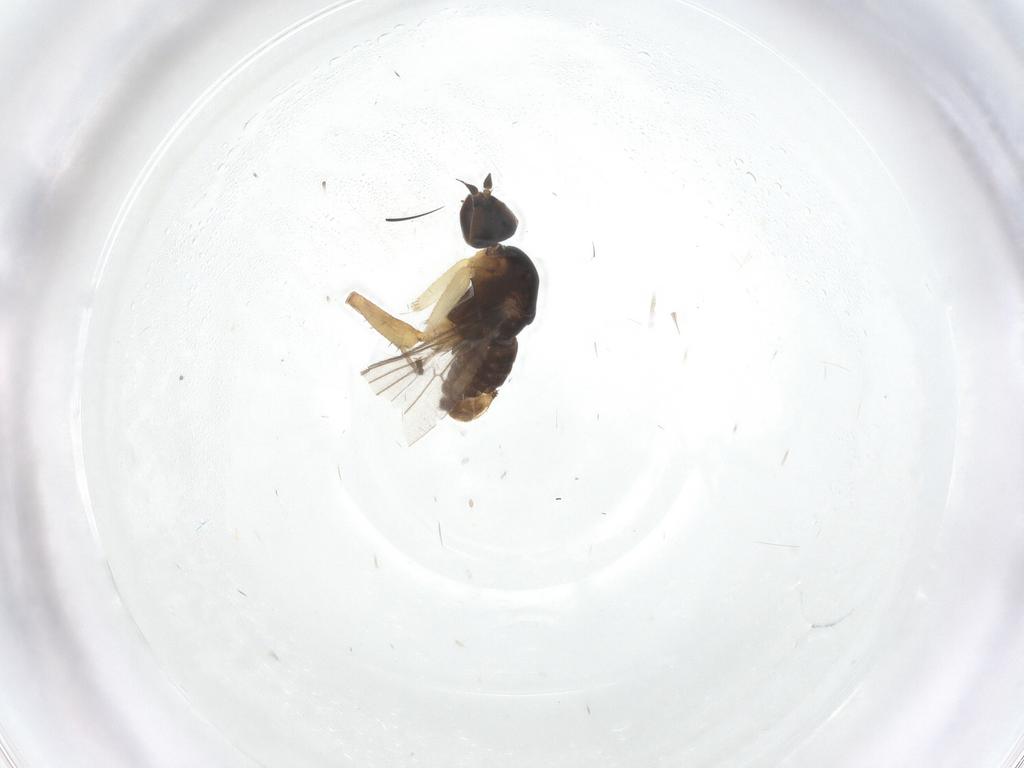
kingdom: Animalia
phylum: Arthropoda
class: Insecta
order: Diptera
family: Empididae
